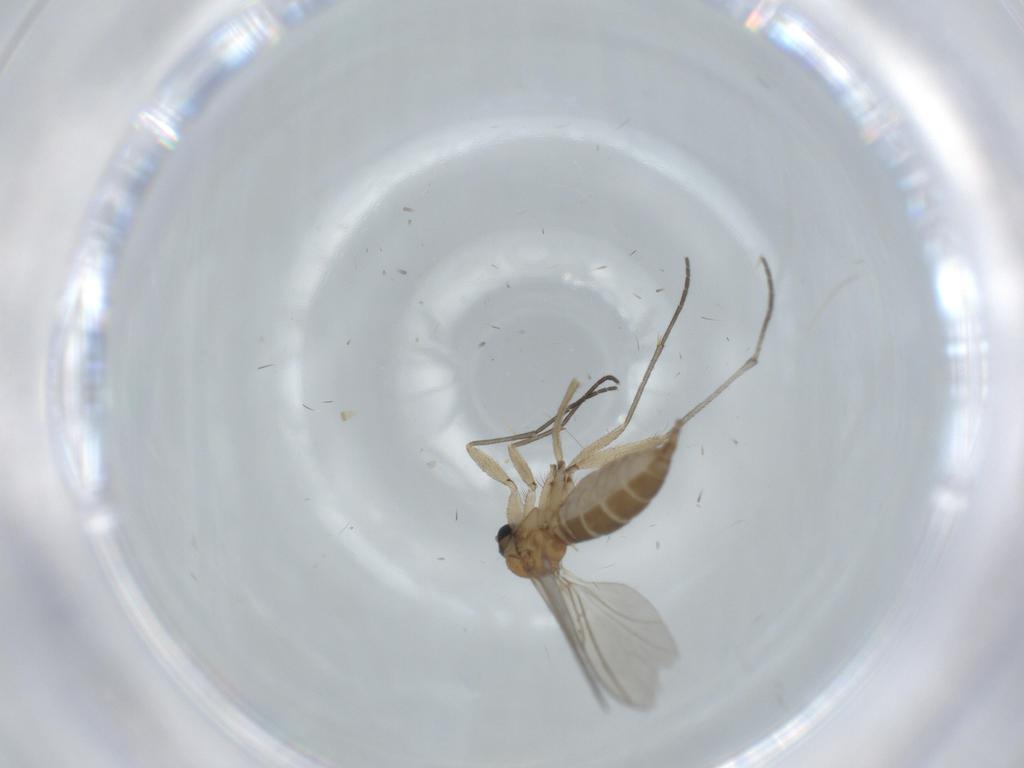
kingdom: Animalia
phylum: Arthropoda
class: Insecta
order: Diptera
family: Sciaridae
